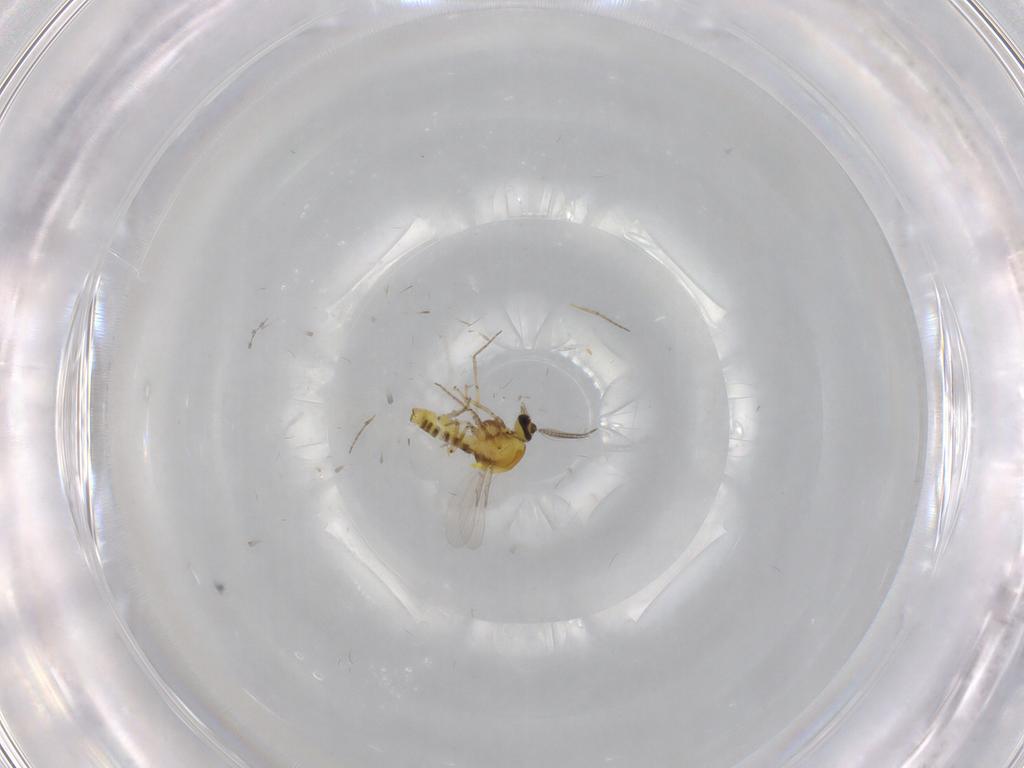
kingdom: Animalia
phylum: Arthropoda
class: Insecta
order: Diptera
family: Ceratopogonidae
